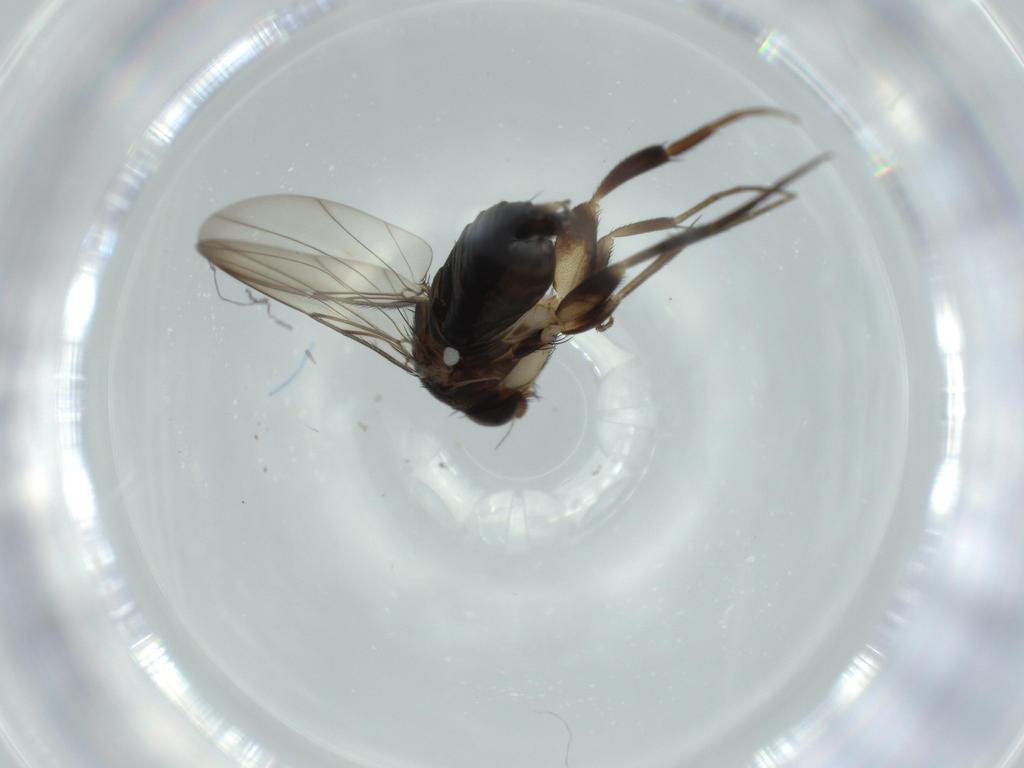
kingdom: Animalia
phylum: Arthropoda
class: Insecta
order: Diptera
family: Phoridae
